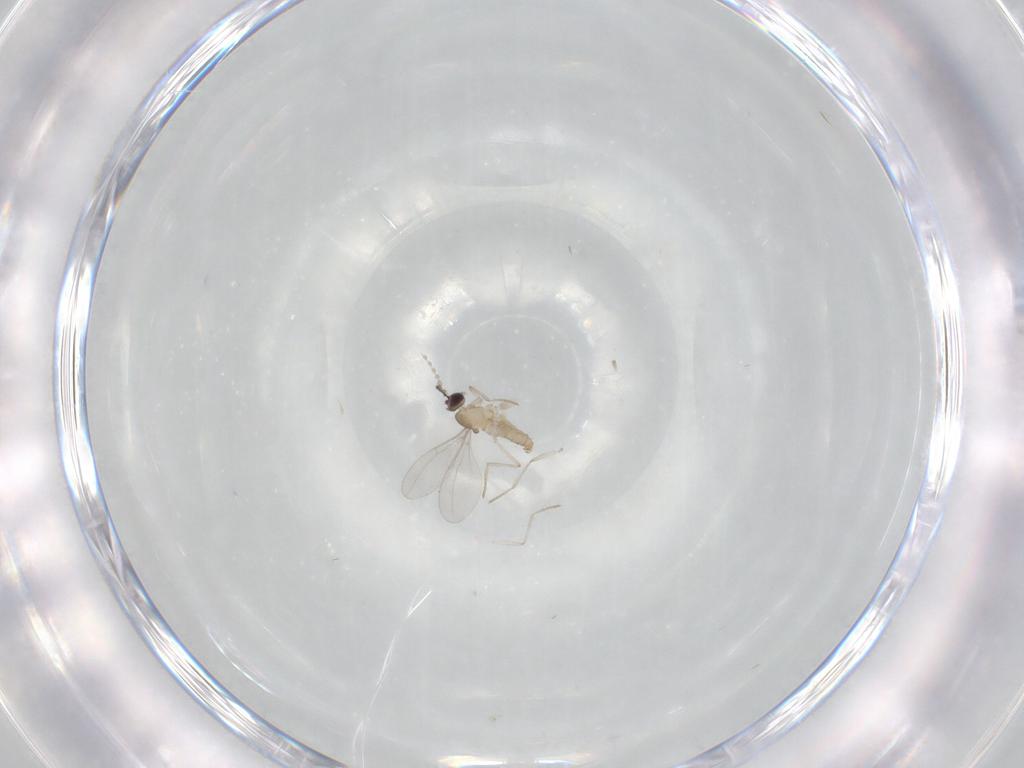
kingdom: Animalia
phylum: Arthropoda
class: Insecta
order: Diptera
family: Cecidomyiidae
